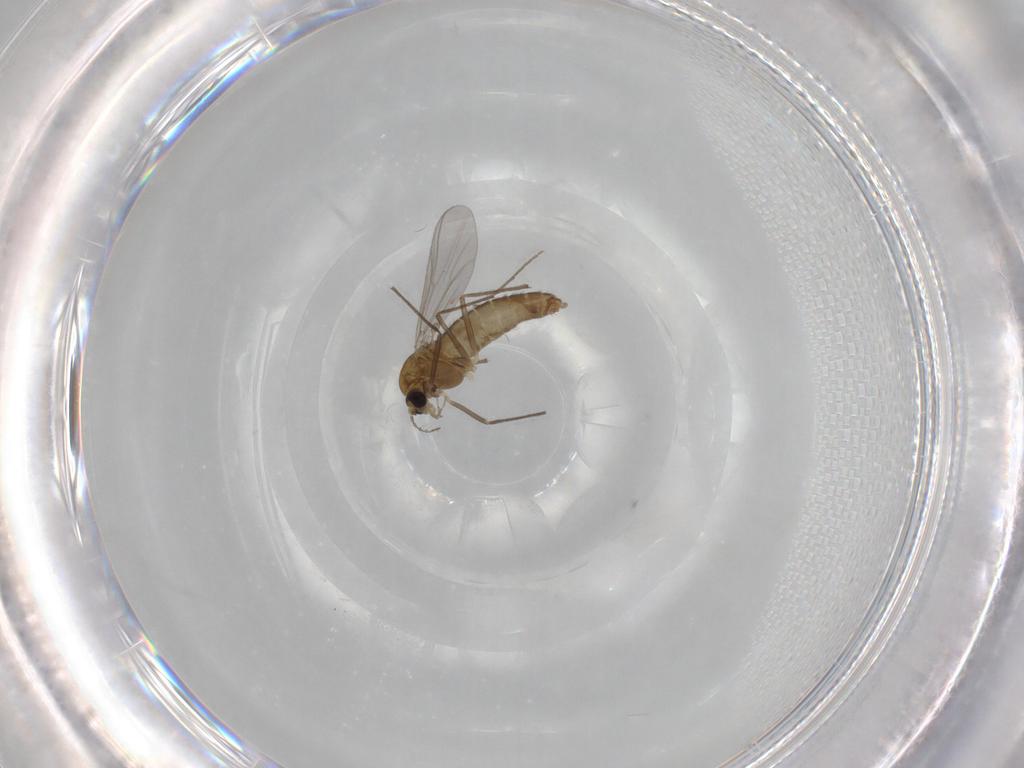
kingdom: Animalia
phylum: Arthropoda
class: Insecta
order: Diptera
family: Chironomidae
